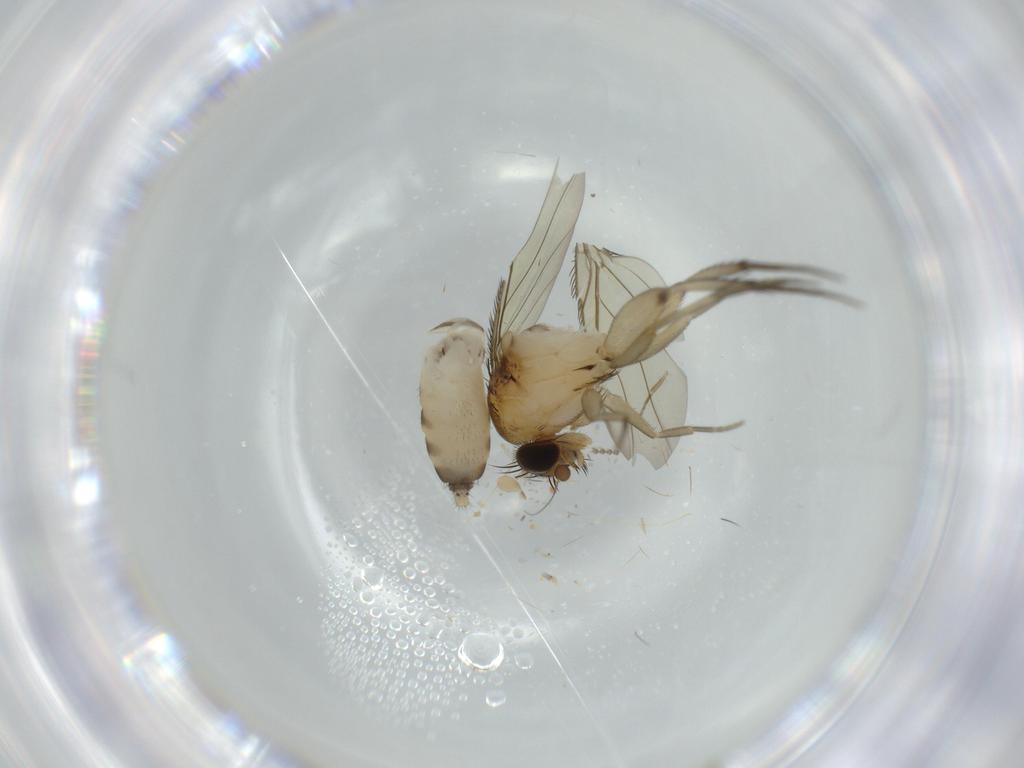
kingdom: Animalia
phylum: Arthropoda
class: Insecta
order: Diptera
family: Phoridae
